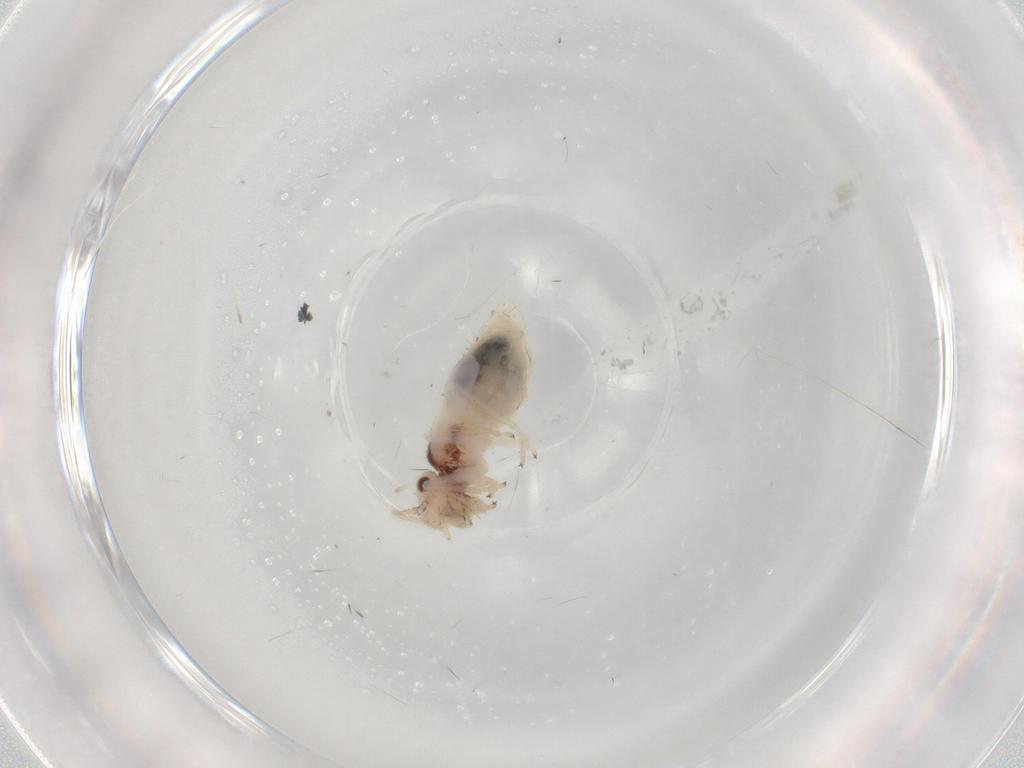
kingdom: Animalia
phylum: Arthropoda
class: Insecta
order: Psocodea
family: Caeciliusidae
